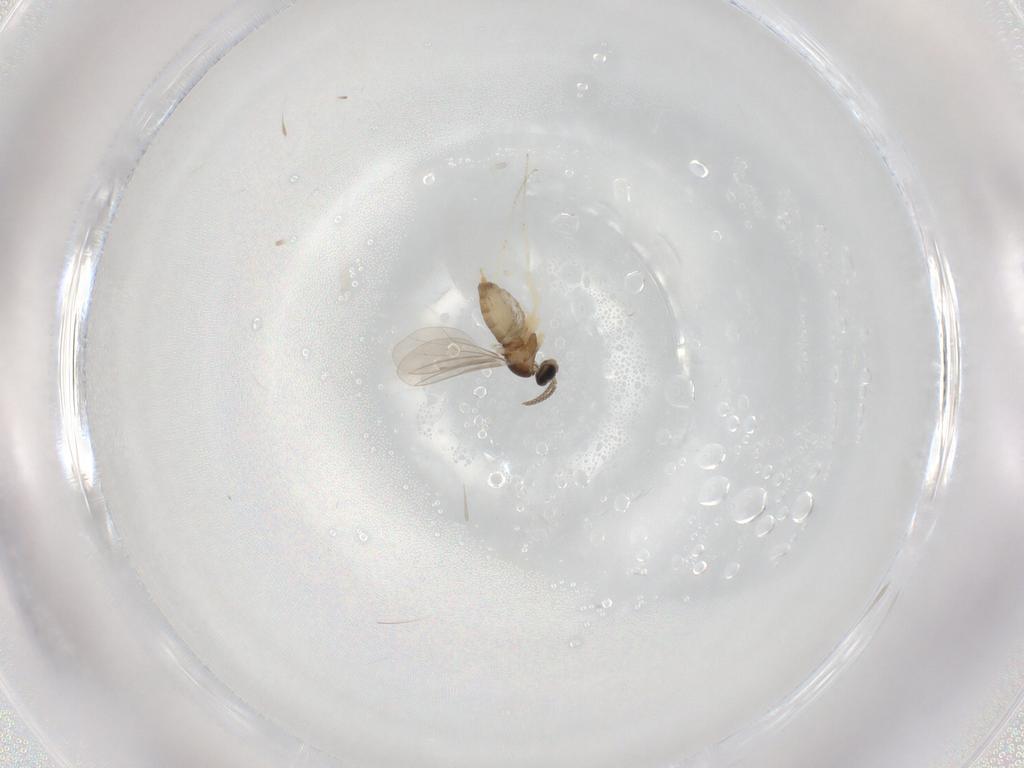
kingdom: Animalia
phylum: Arthropoda
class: Insecta
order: Diptera
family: Cecidomyiidae
